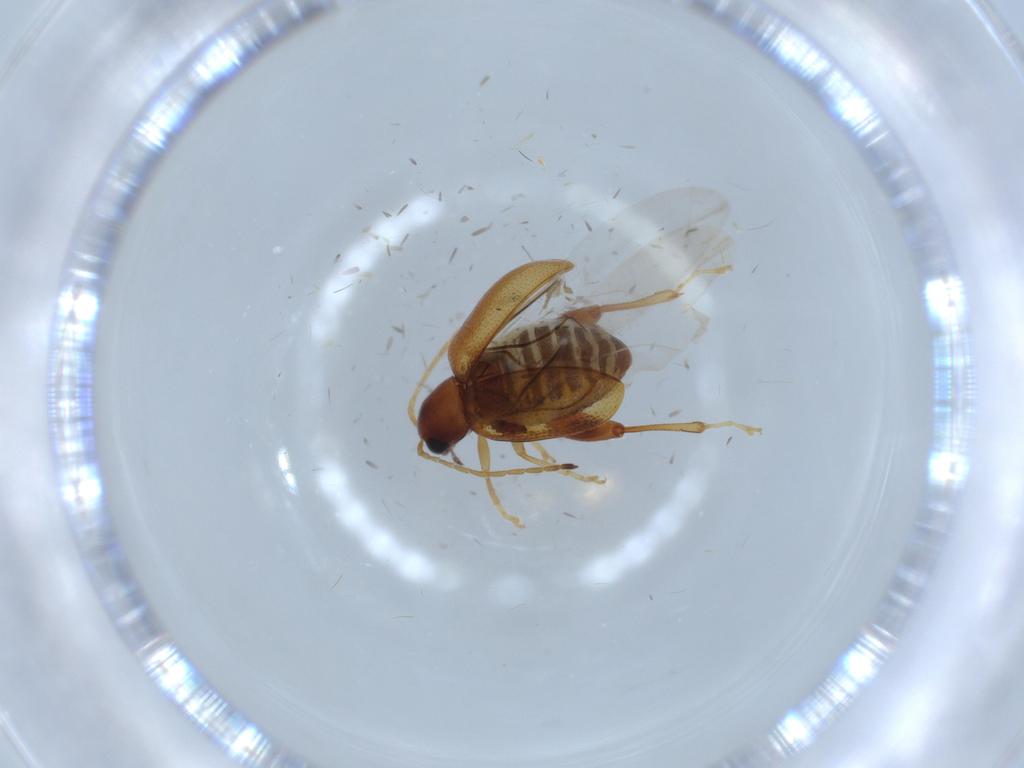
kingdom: Animalia
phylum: Arthropoda
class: Insecta
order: Coleoptera
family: Chrysomelidae
